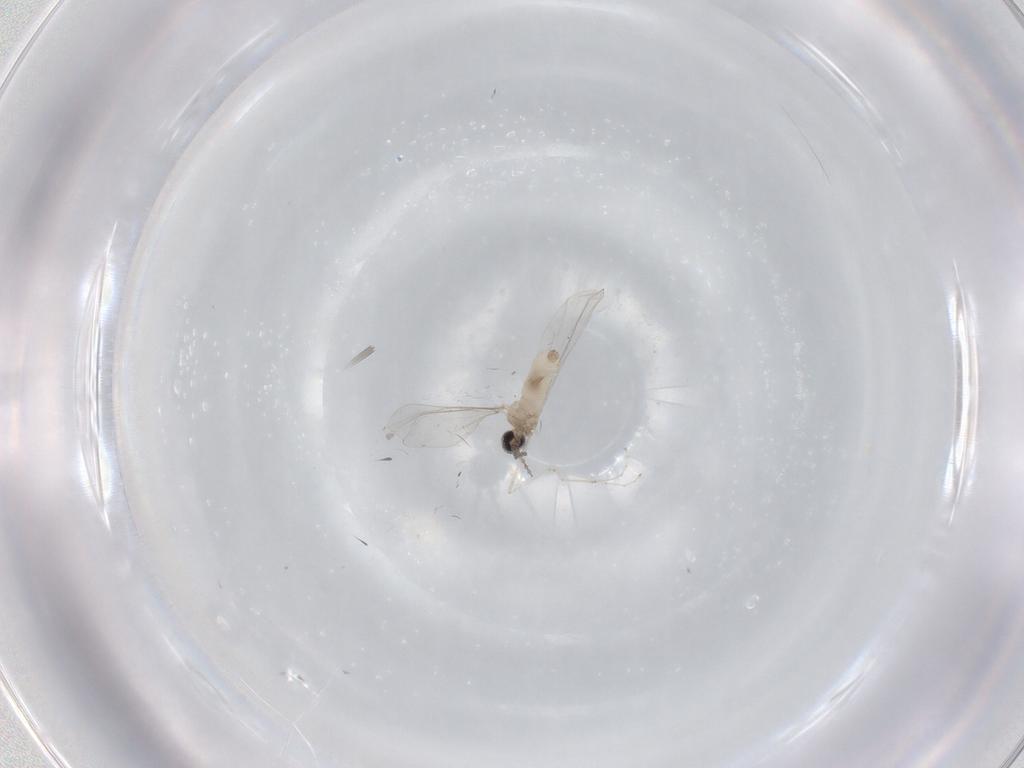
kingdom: Animalia
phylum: Arthropoda
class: Insecta
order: Diptera
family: Cecidomyiidae
